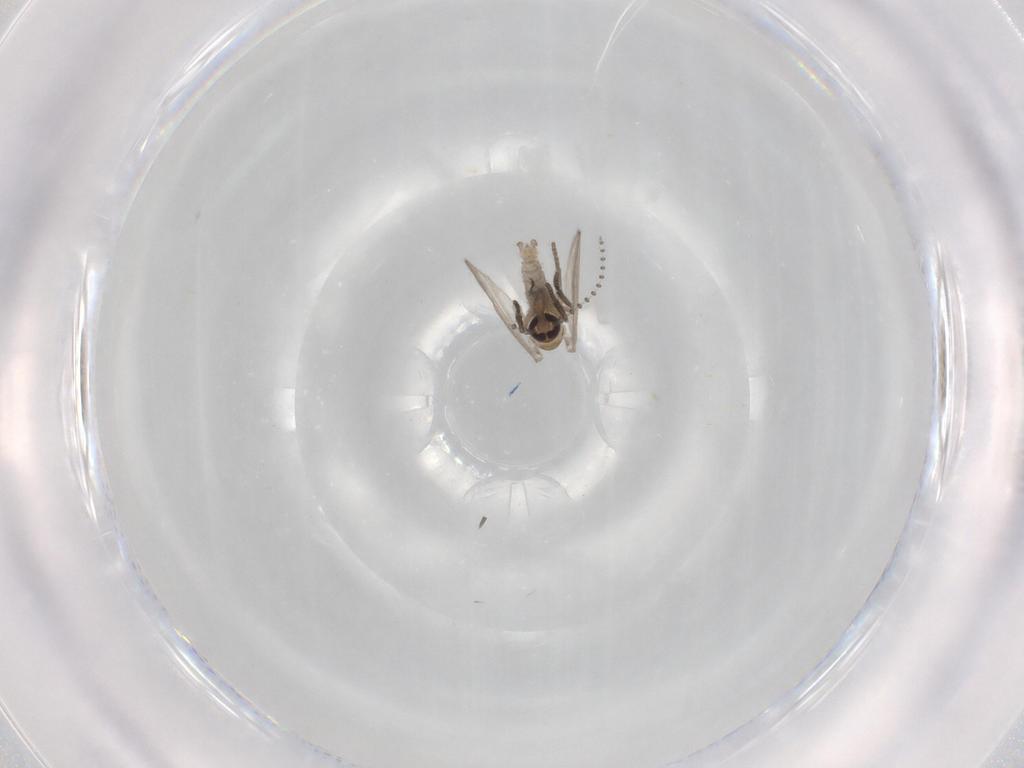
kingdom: Animalia
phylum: Arthropoda
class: Insecta
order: Diptera
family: Psychodidae
